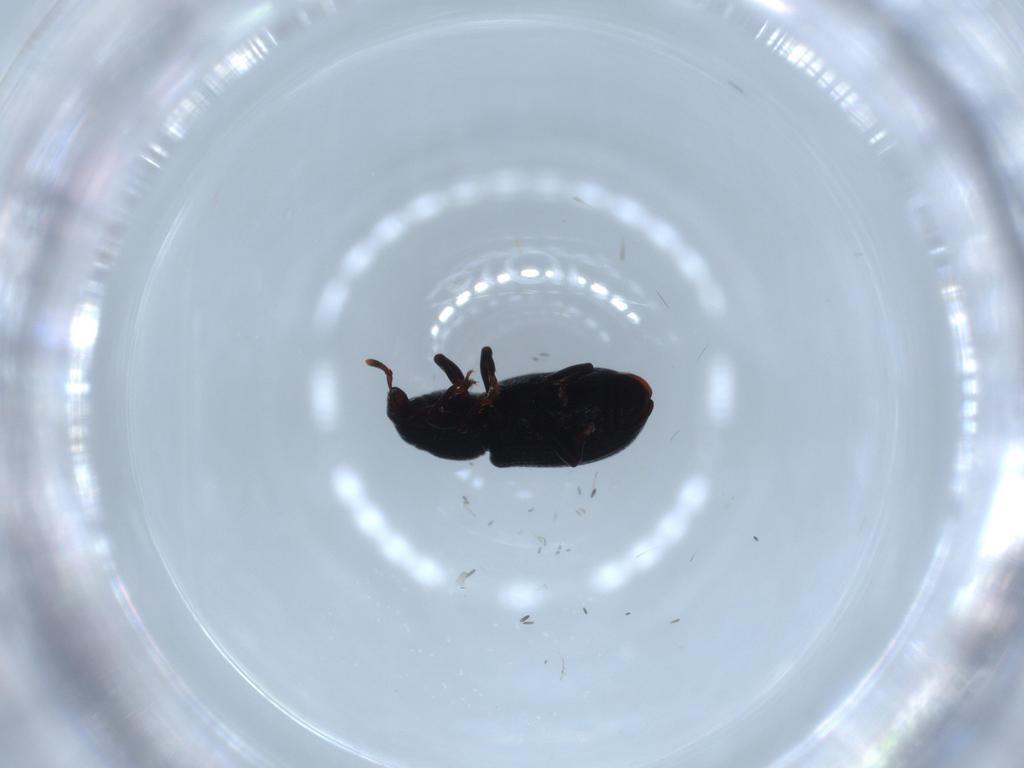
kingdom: Animalia
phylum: Arthropoda
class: Insecta
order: Coleoptera
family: Chrysomelidae
